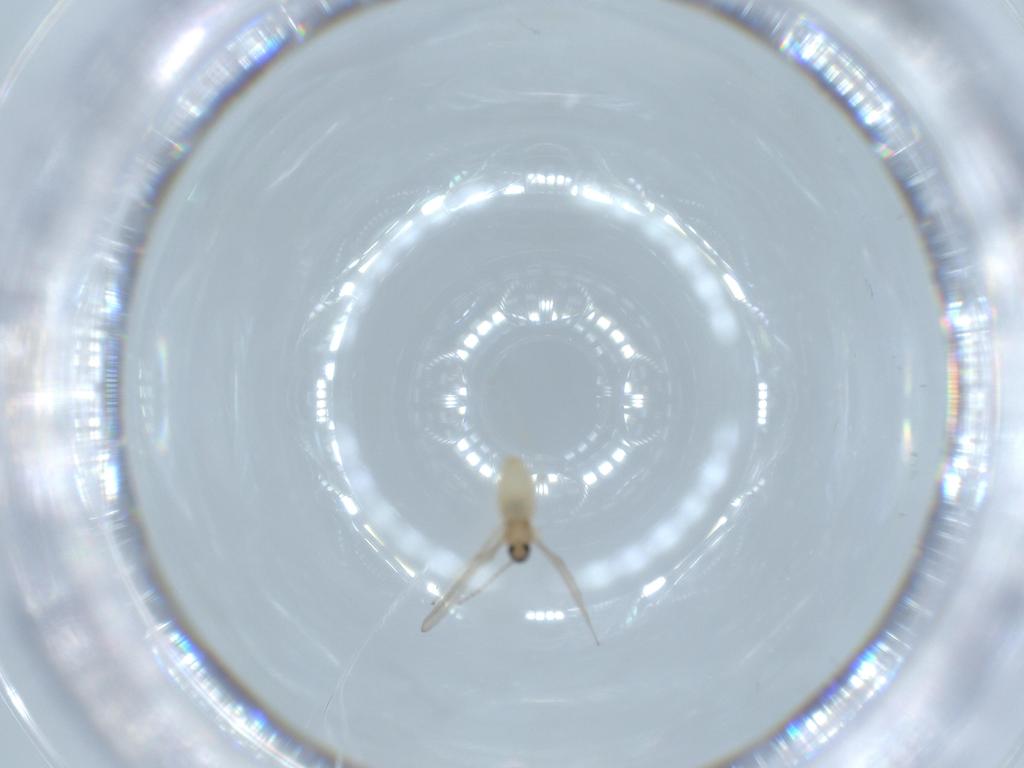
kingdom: Animalia
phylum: Arthropoda
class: Insecta
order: Diptera
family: Cecidomyiidae
